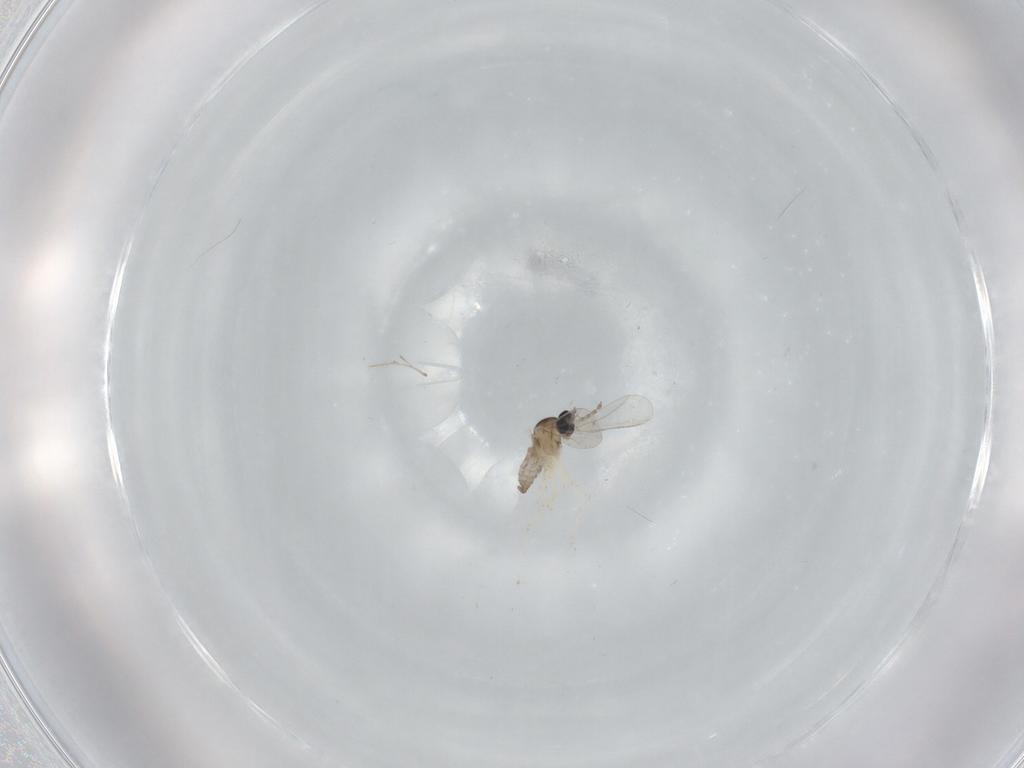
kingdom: Animalia
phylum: Arthropoda
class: Insecta
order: Diptera
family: Cecidomyiidae
